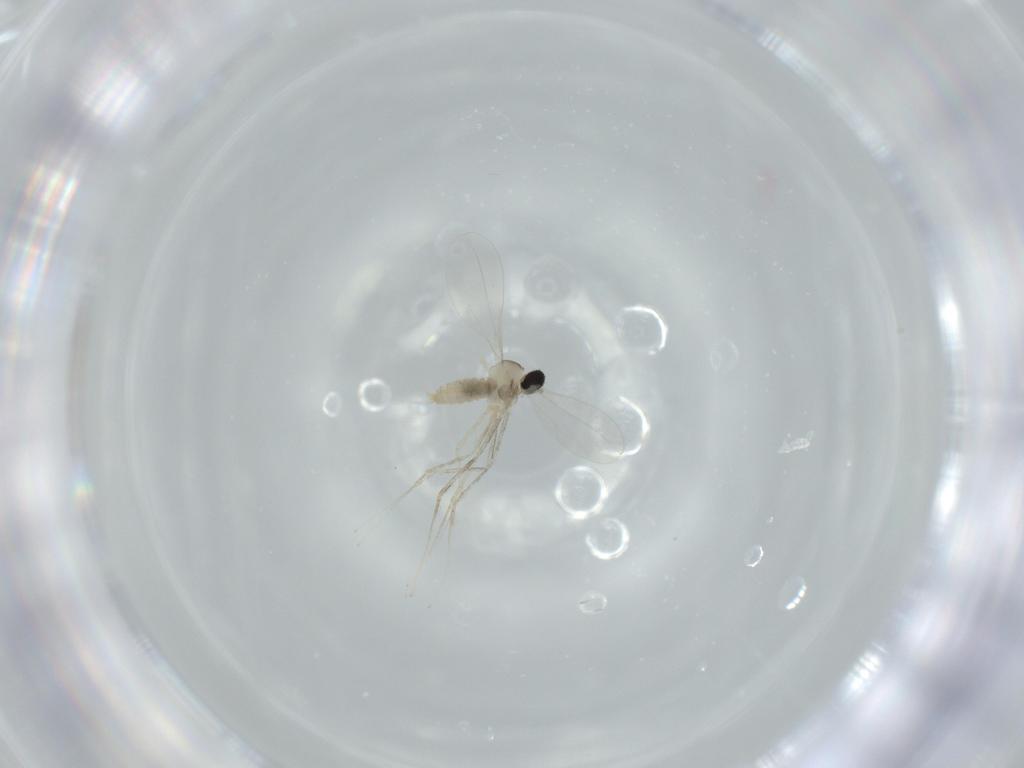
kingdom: Animalia
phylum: Arthropoda
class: Insecta
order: Diptera
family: Cecidomyiidae
